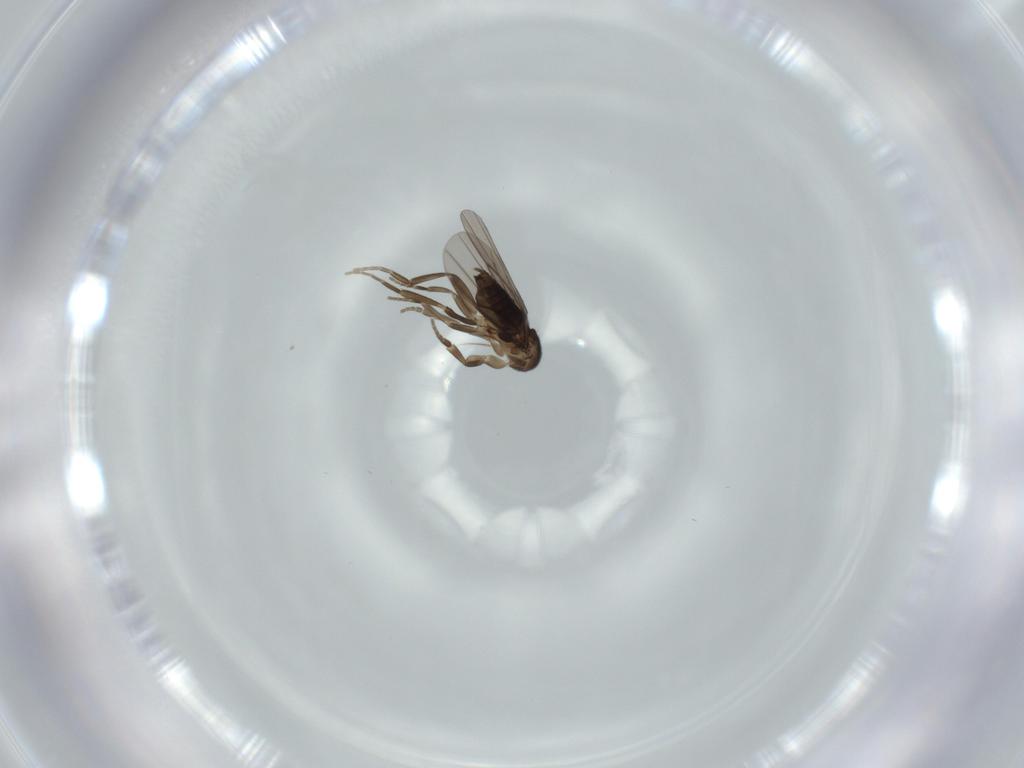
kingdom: Animalia
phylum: Arthropoda
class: Insecta
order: Diptera
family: Phoridae
